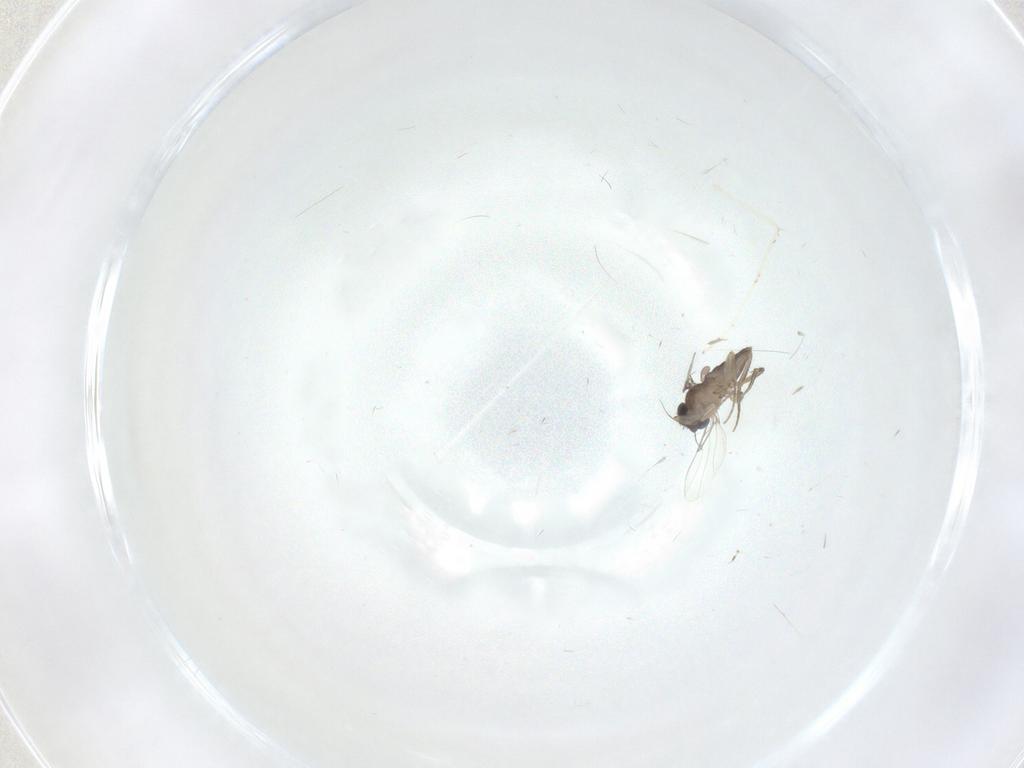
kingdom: Animalia
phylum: Arthropoda
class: Insecta
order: Diptera
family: Phoridae
